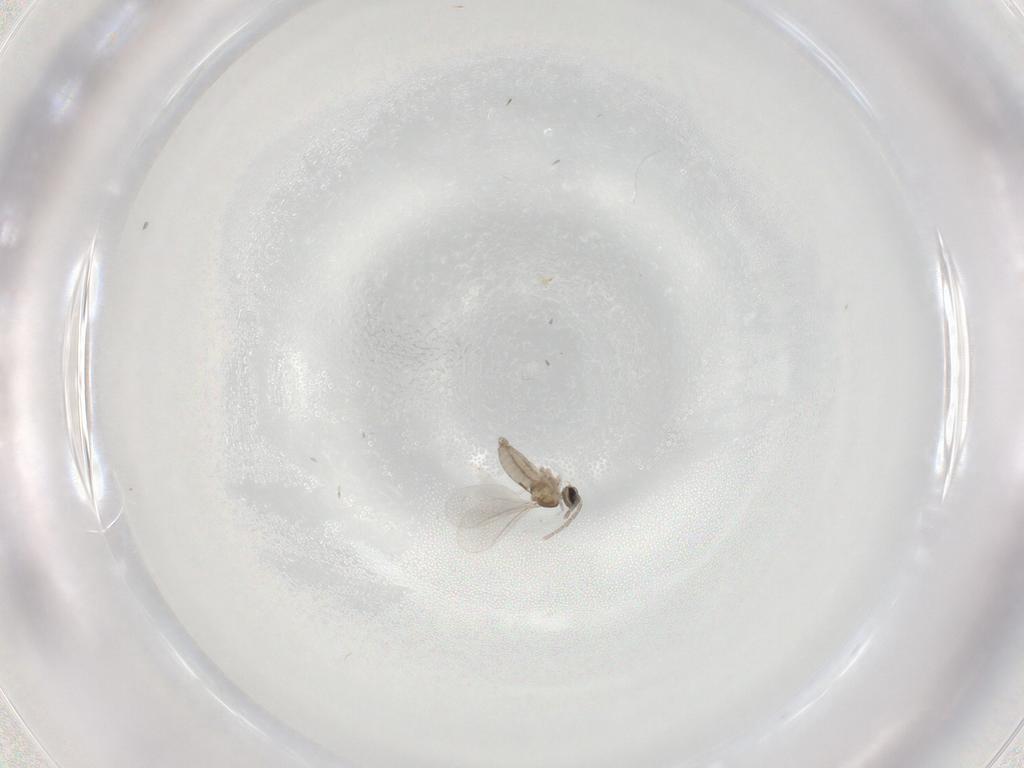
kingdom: Animalia
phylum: Arthropoda
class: Insecta
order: Diptera
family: Cecidomyiidae
